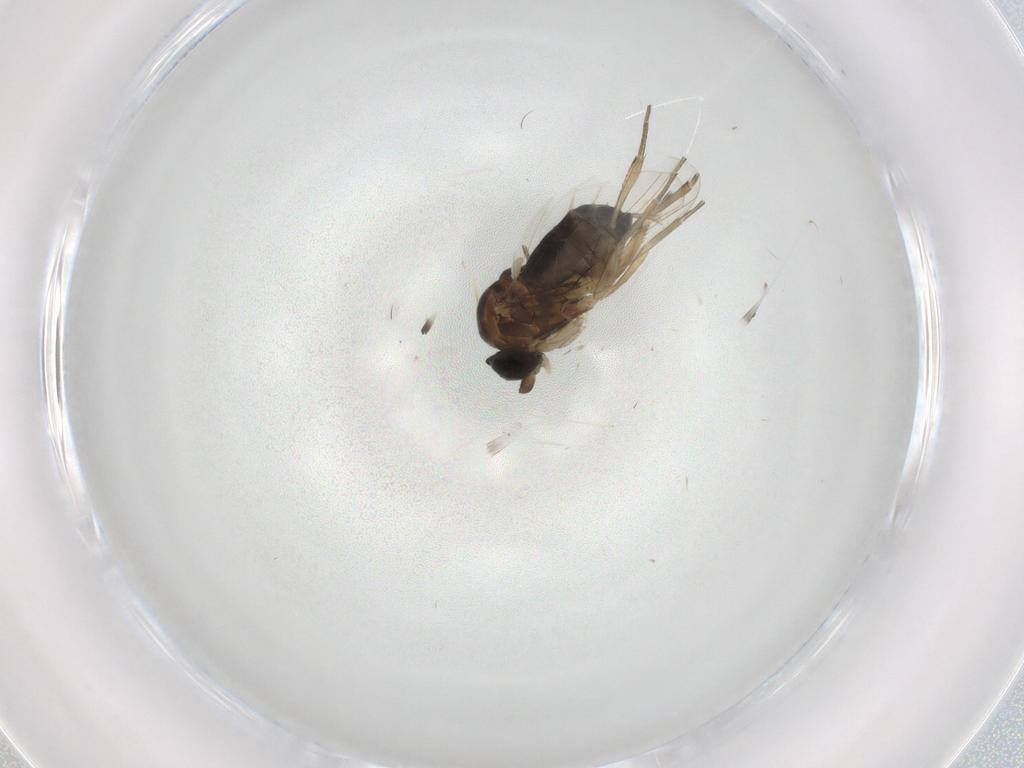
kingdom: Animalia
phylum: Arthropoda
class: Insecta
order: Diptera
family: Phoridae
